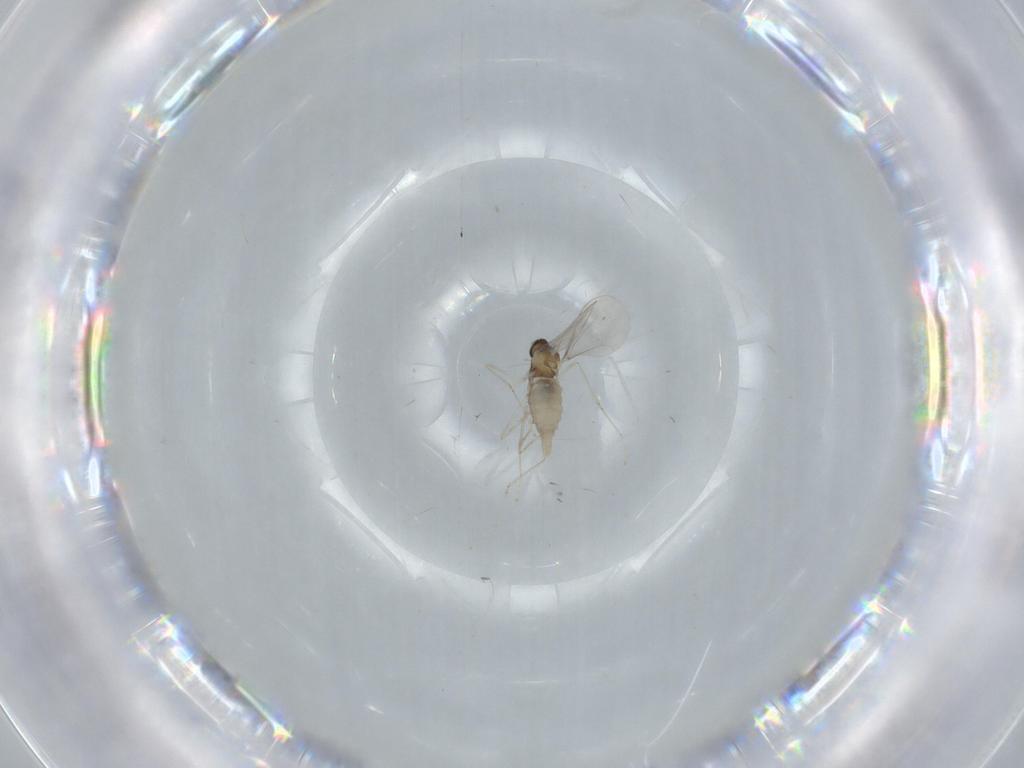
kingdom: Animalia
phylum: Arthropoda
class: Insecta
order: Diptera
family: Cecidomyiidae
